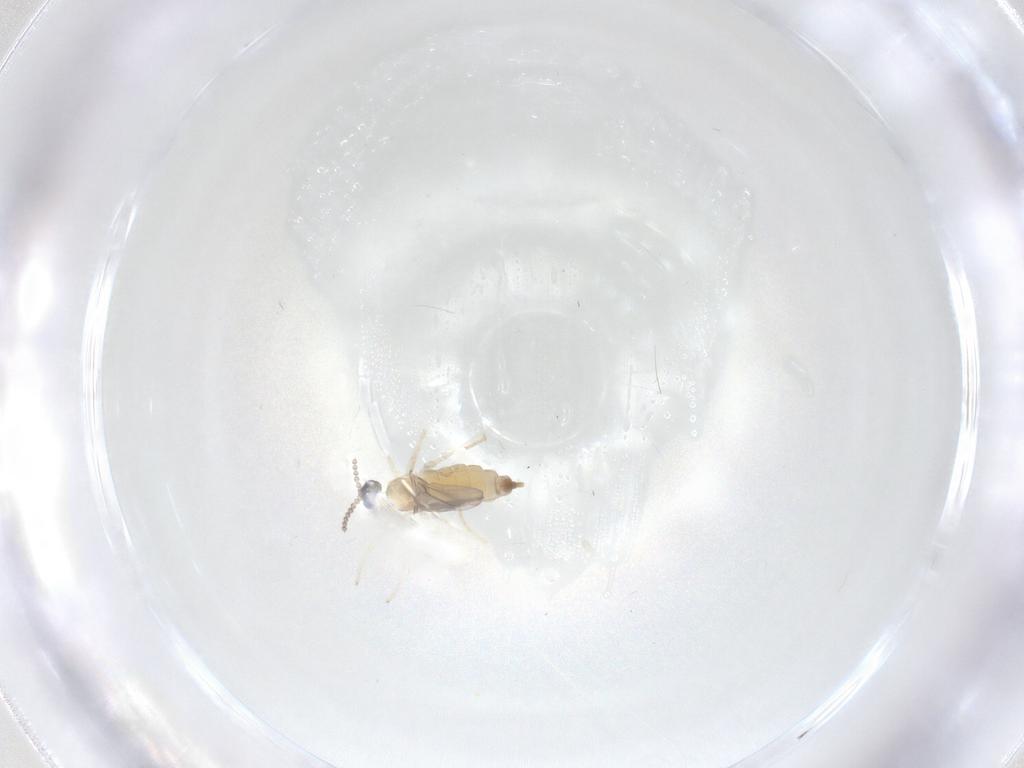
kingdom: Animalia
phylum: Arthropoda
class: Insecta
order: Diptera
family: Cecidomyiidae
